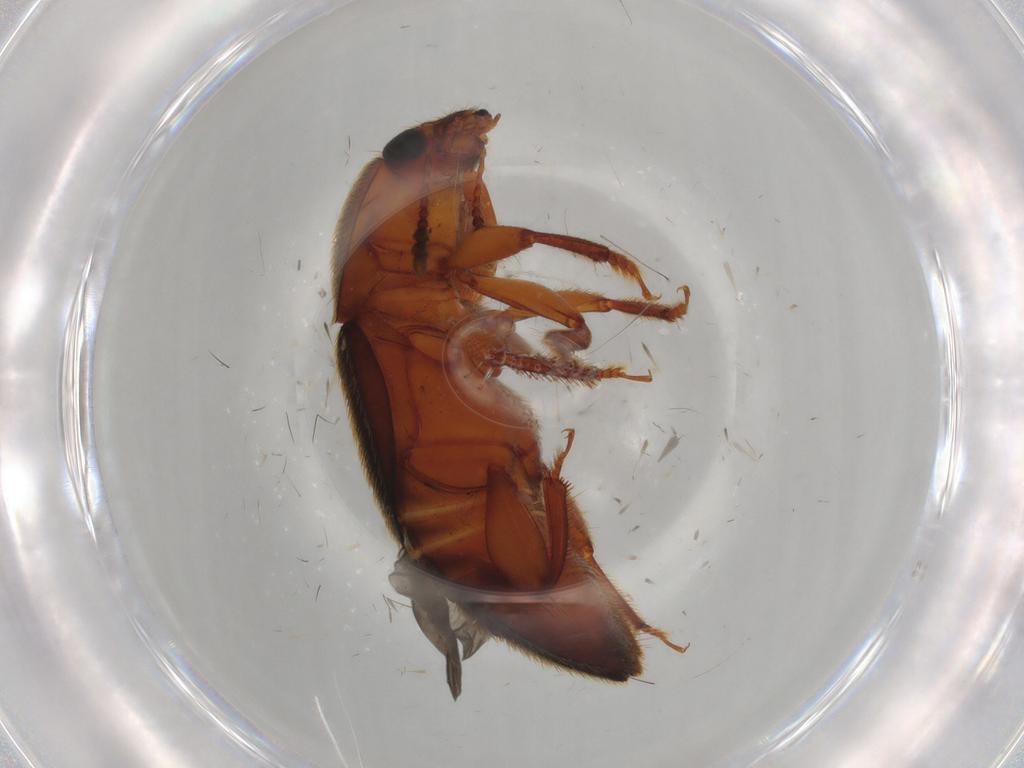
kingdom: Animalia
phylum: Arthropoda
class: Insecta
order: Coleoptera
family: Nitidulidae
